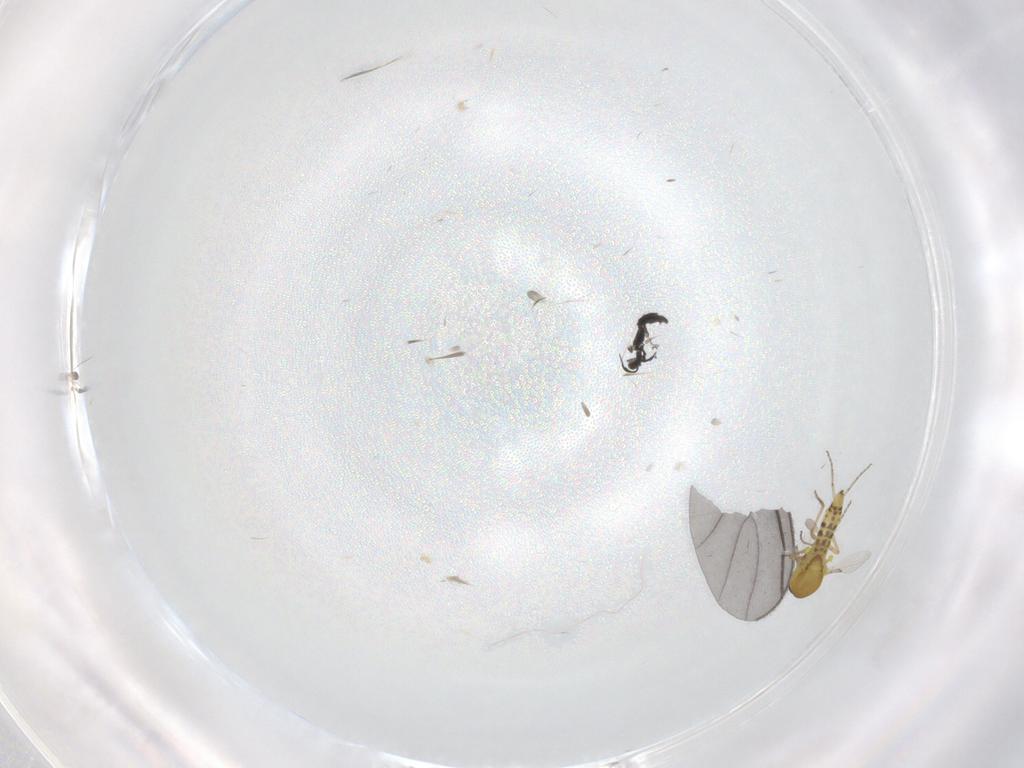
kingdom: Animalia
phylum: Arthropoda
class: Insecta
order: Diptera
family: Ceratopogonidae
